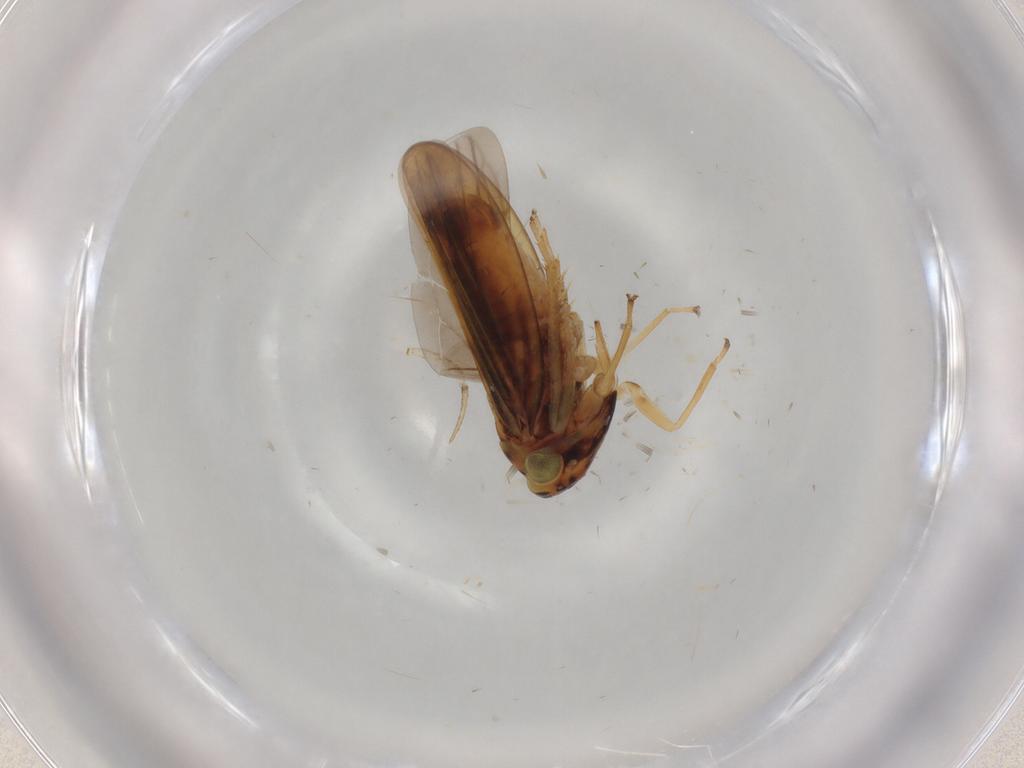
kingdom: Animalia
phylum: Arthropoda
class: Insecta
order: Hemiptera
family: Cicadellidae
